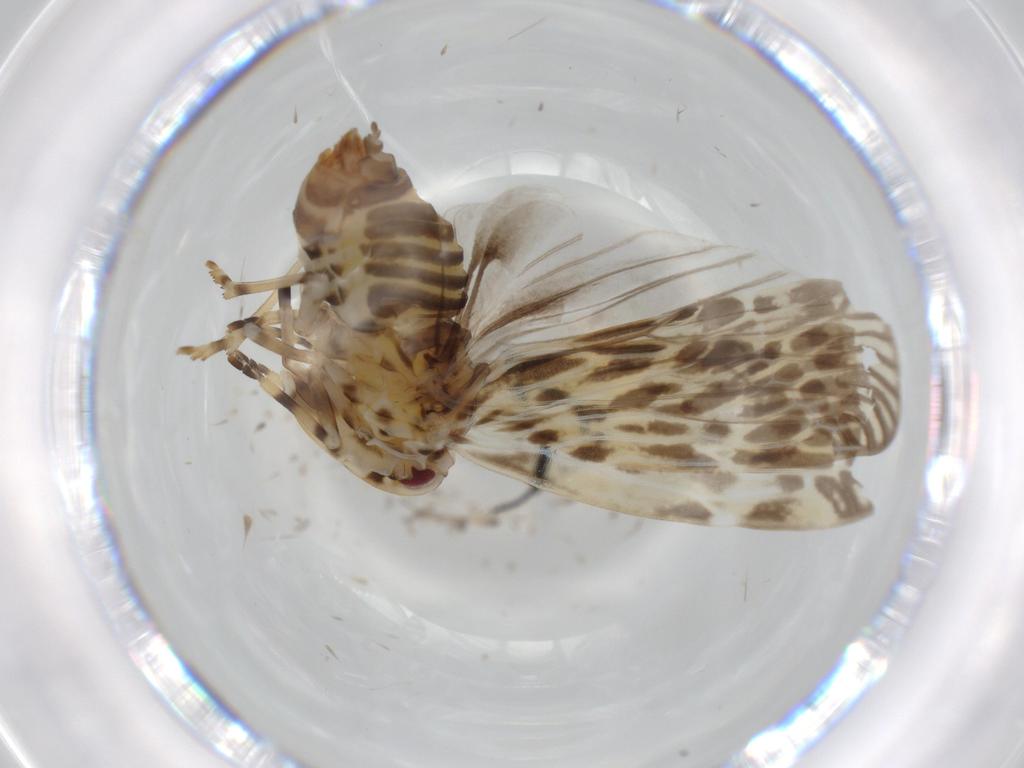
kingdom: Animalia
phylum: Arthropoda
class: Insecta
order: Hemiptera
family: Derbidae
